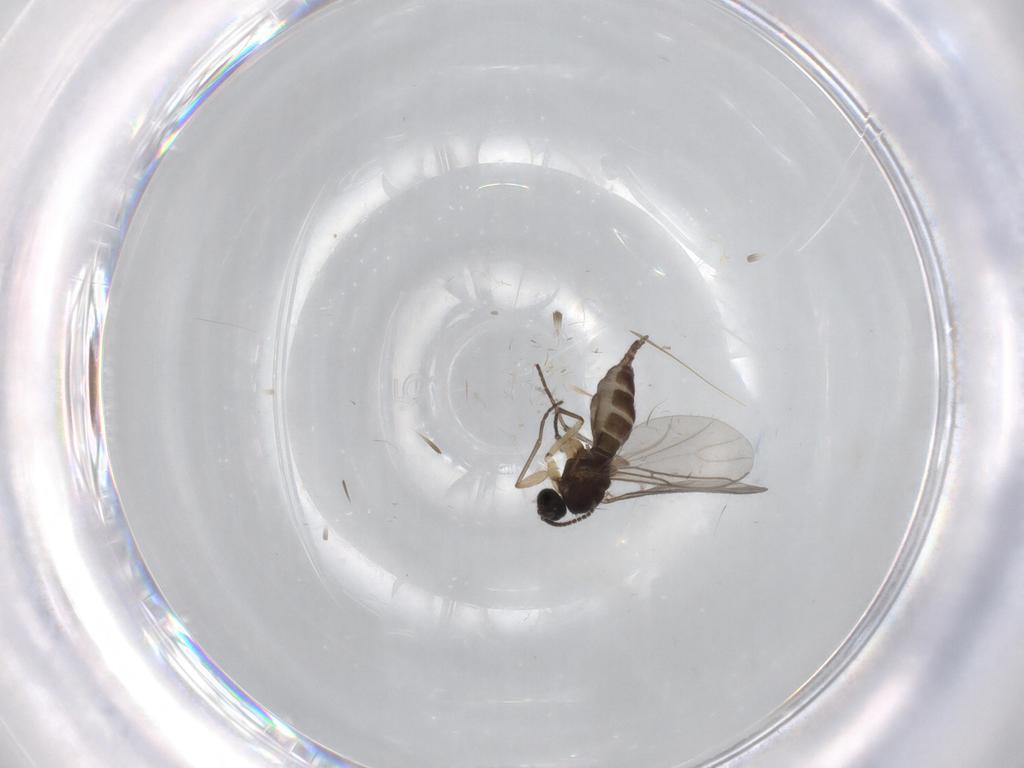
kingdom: Animalia
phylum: Arthropoda
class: Insecta
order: Diptera
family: Sciaridae
